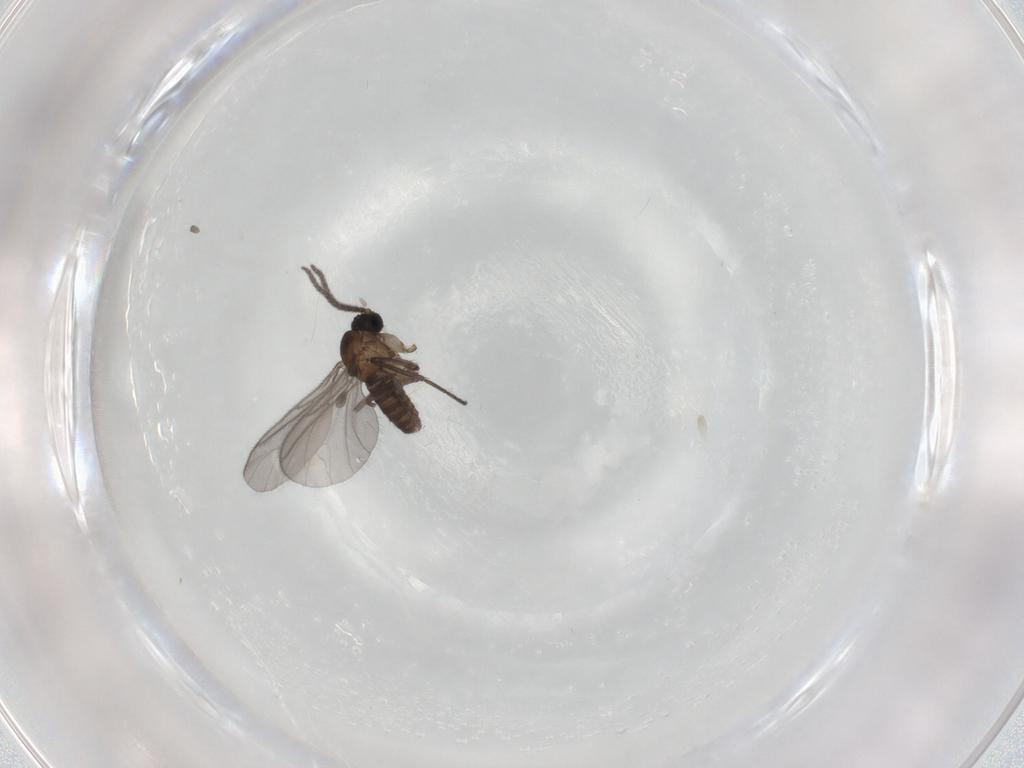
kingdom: Animalia
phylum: Arthropoda
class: Insecta
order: Diptera
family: Sciaridae
